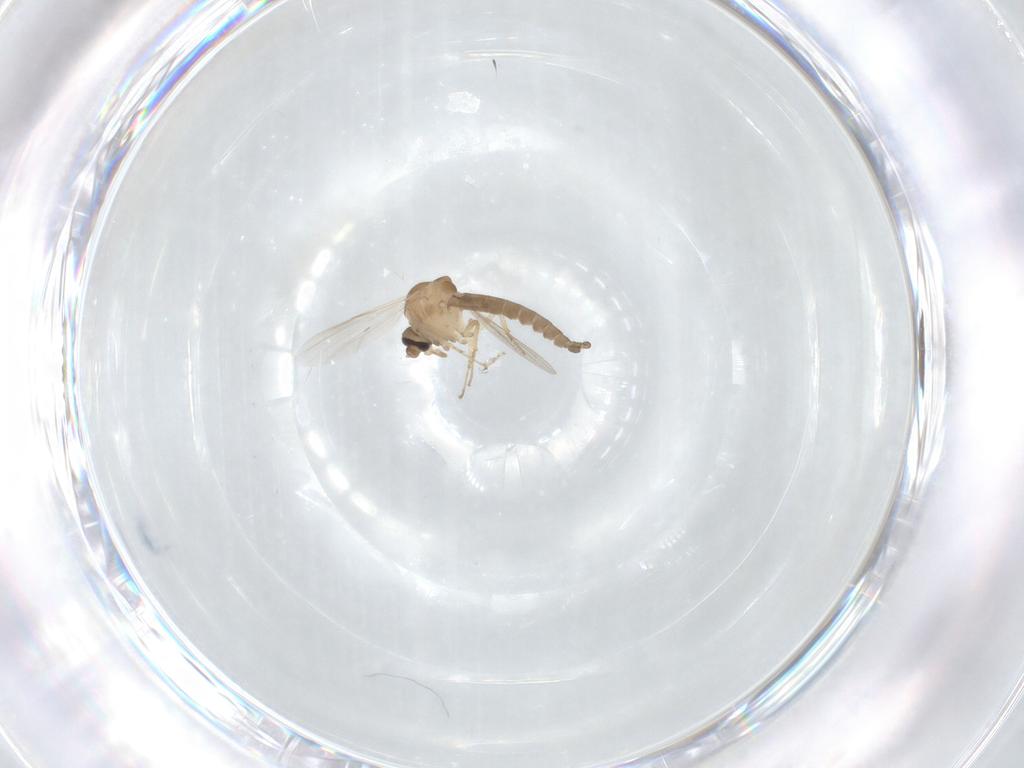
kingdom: Animalia
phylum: Arthropoda
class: Insecta
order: Diptera
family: Ceratopogonidae
